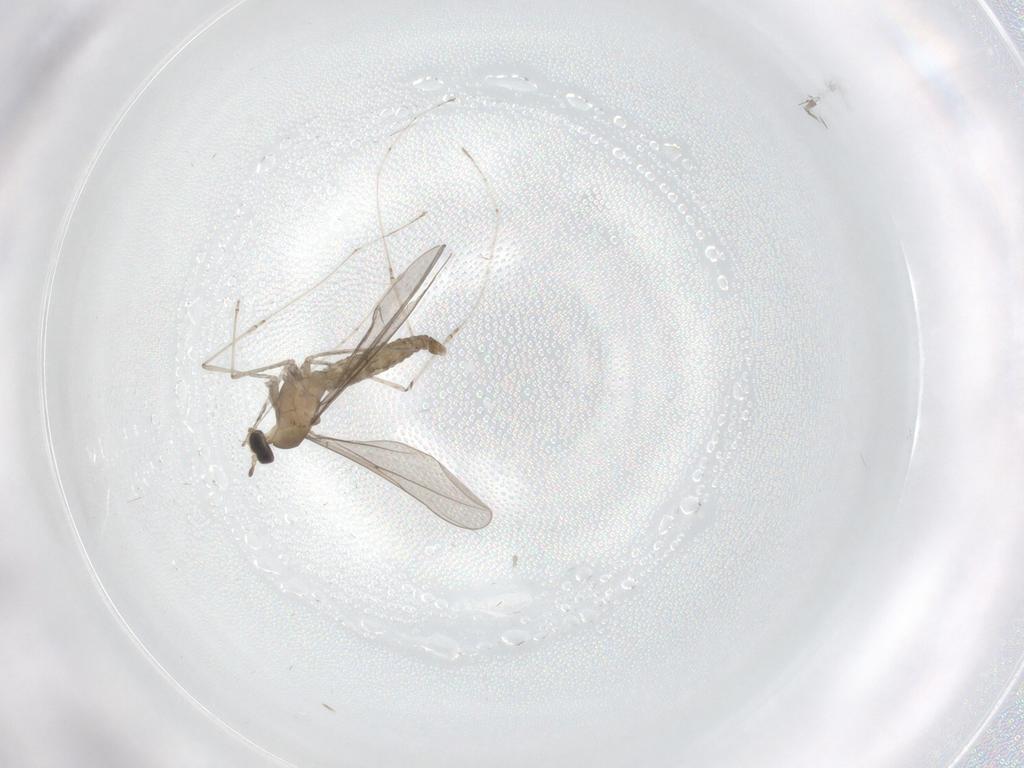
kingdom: Animalia
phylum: Arthropoda
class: Insecta
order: Diptera
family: Cecidomyiidae
